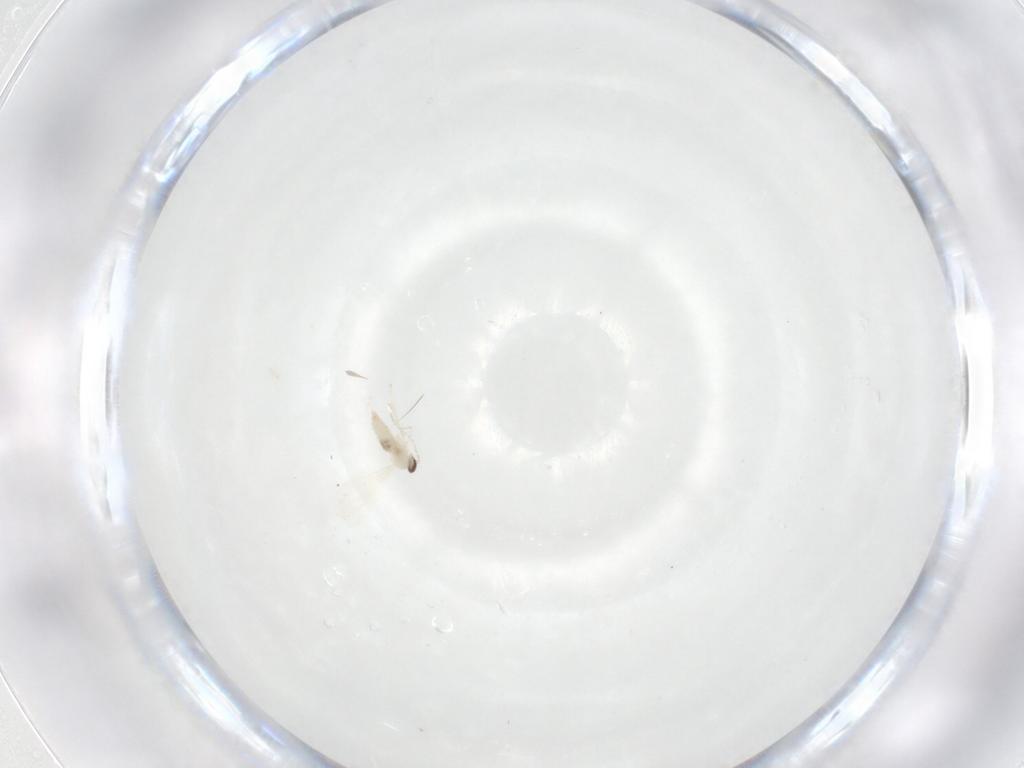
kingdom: Animalia
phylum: Arthropoda
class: Insecta
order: Diptera
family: Cecidomyiidae
